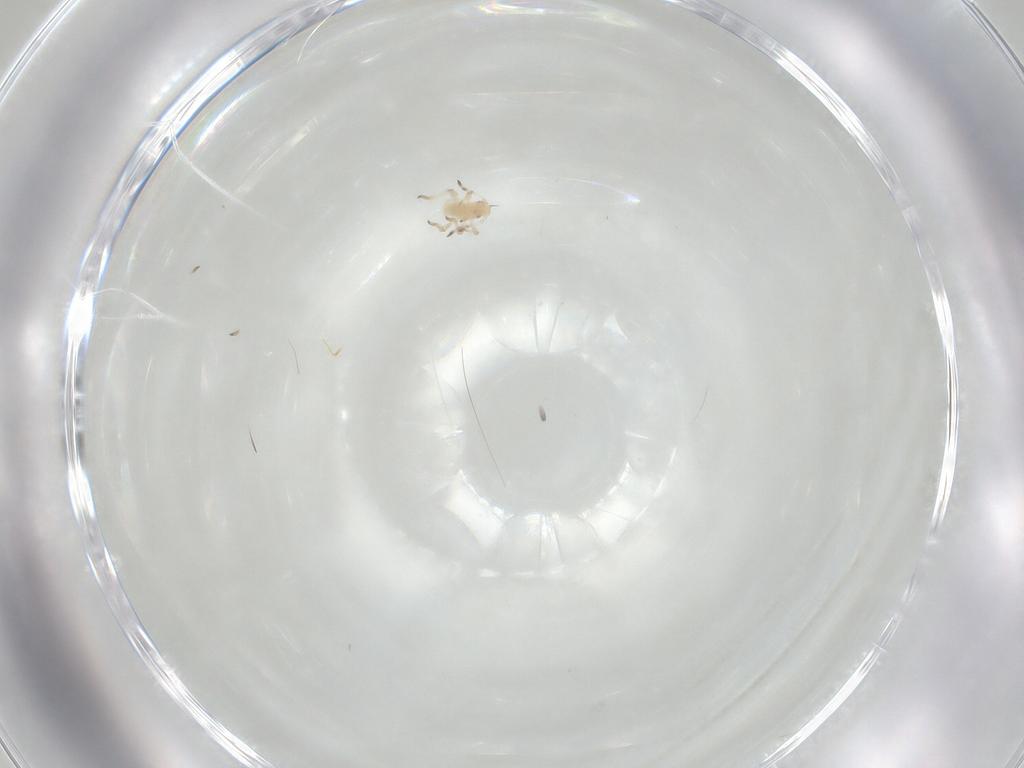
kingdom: Animalia
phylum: Arthropoda
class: Insecta
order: Hemiptera
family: Aphididae
